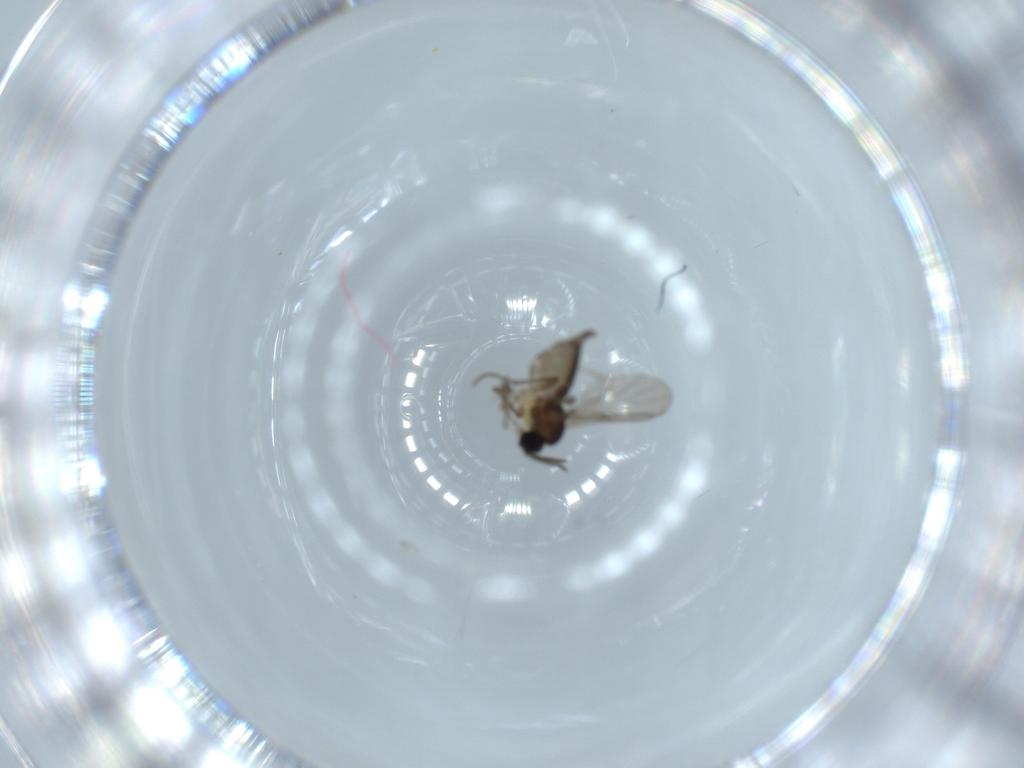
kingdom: Animalia
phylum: Arthropoda
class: Insecta
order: Diptera
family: Sciaridae
